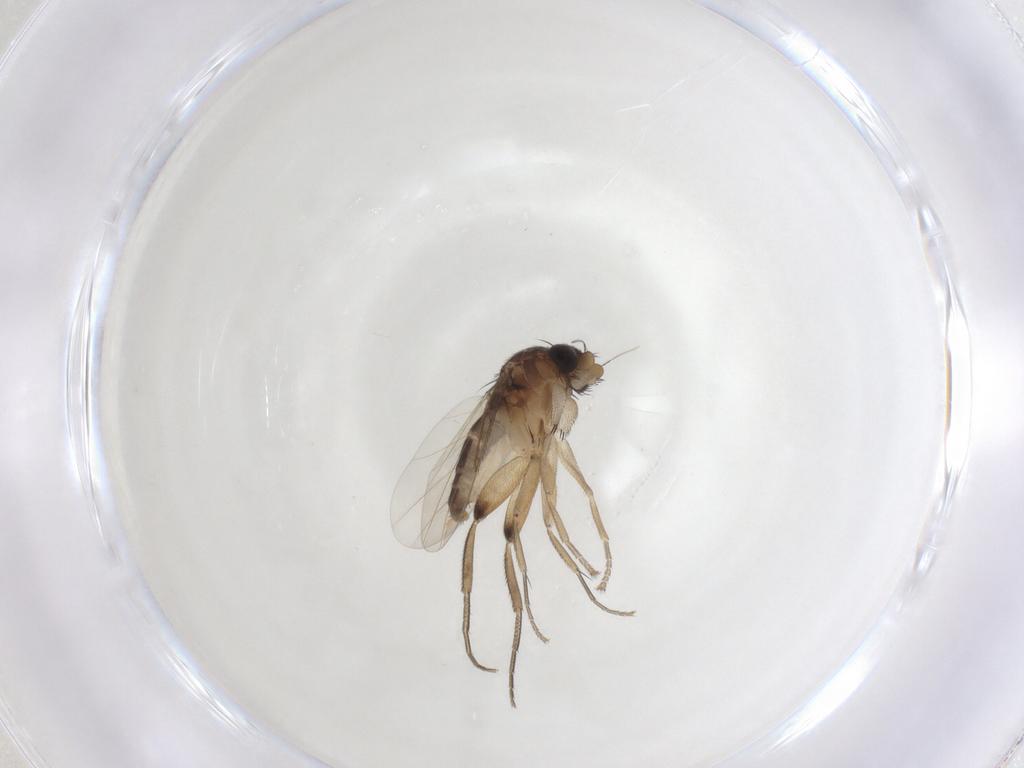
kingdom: Animalia
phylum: Arthropoda
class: Insecta
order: Diptera
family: Phoridae
